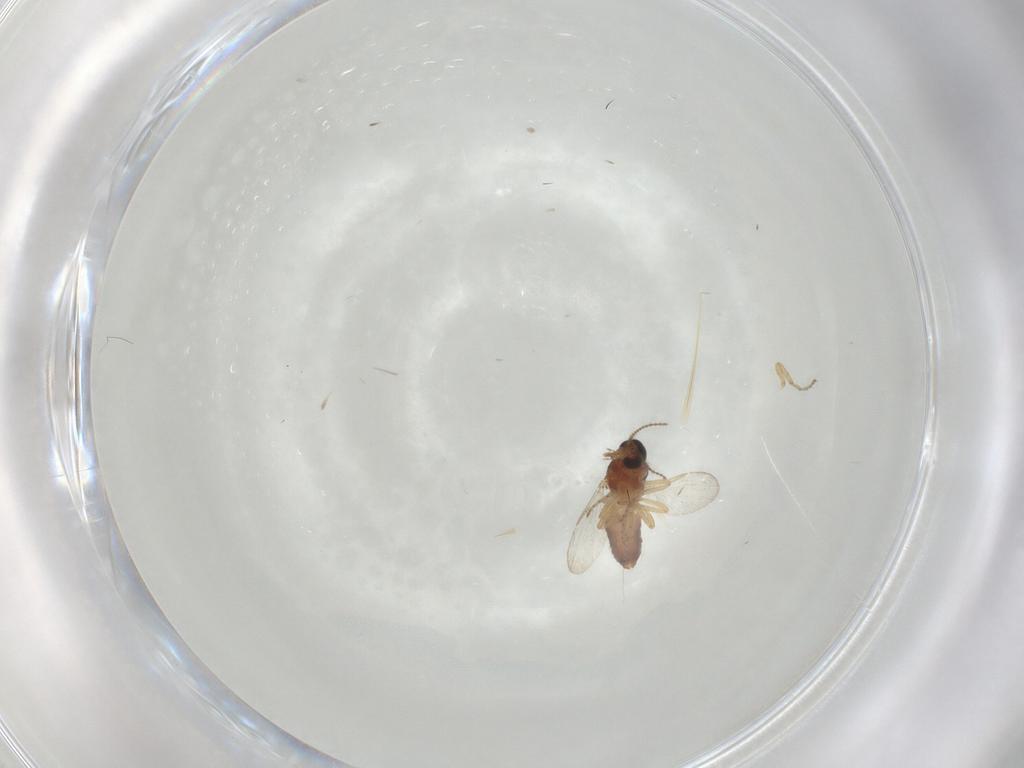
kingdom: Animalia
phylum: Arthropoda
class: Insecta
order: Diptera
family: Ceratopogonidae
